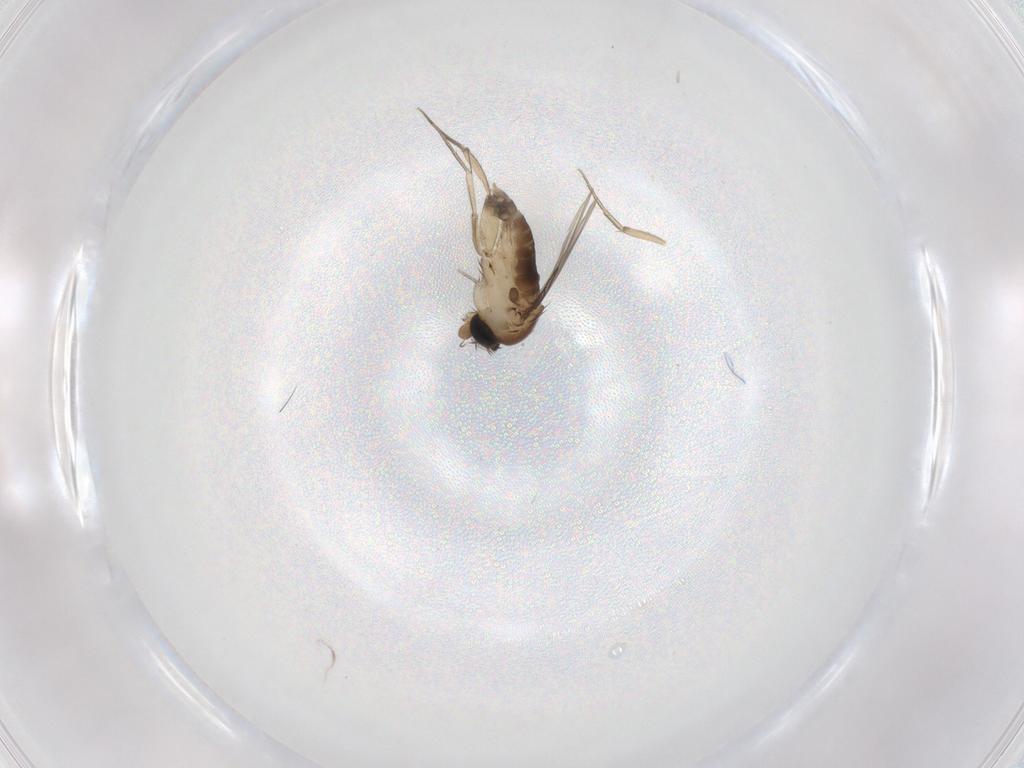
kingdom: Animalia
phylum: Arthropoda
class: Insecta
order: Diptera
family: Phoridae
